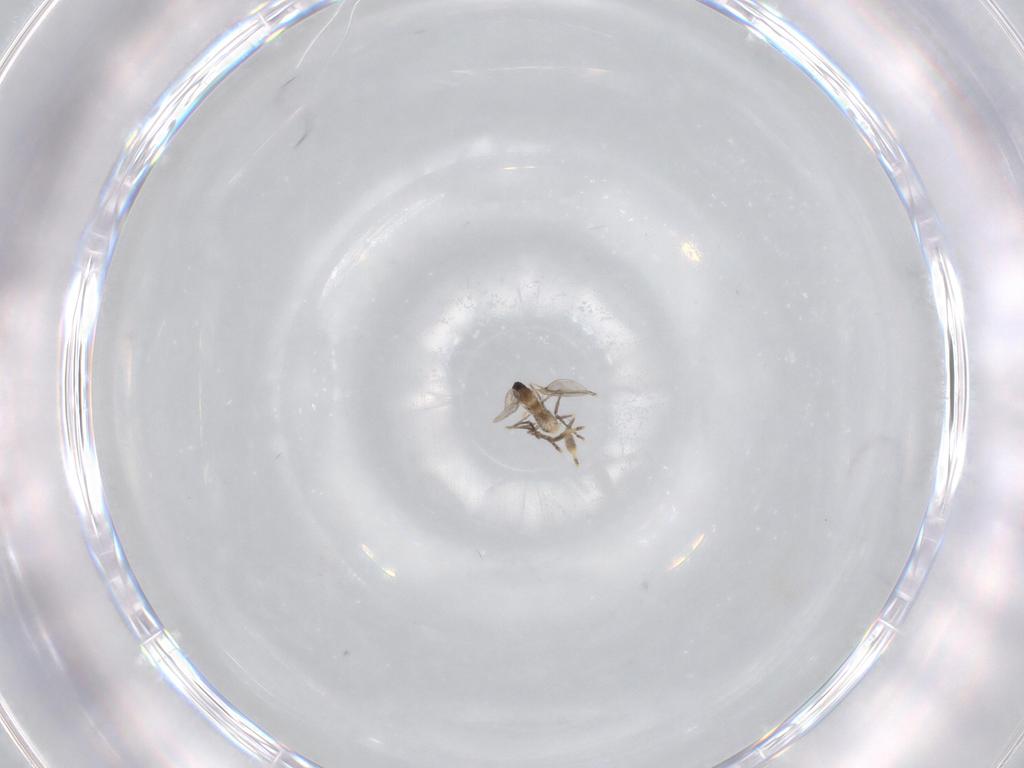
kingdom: Animalia
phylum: Arthropoda
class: Insecta
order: Diptera
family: Cecidomyiidae
